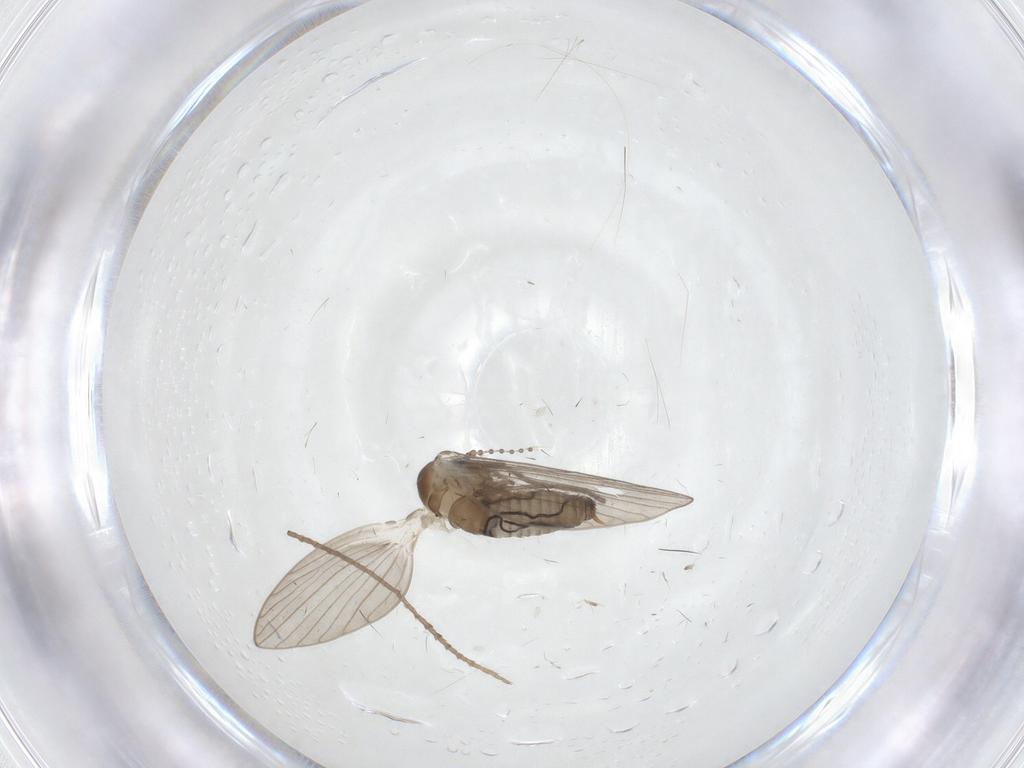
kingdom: Animalia
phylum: Arthropoda
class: Insecta
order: Diptera
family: Psychodidae
